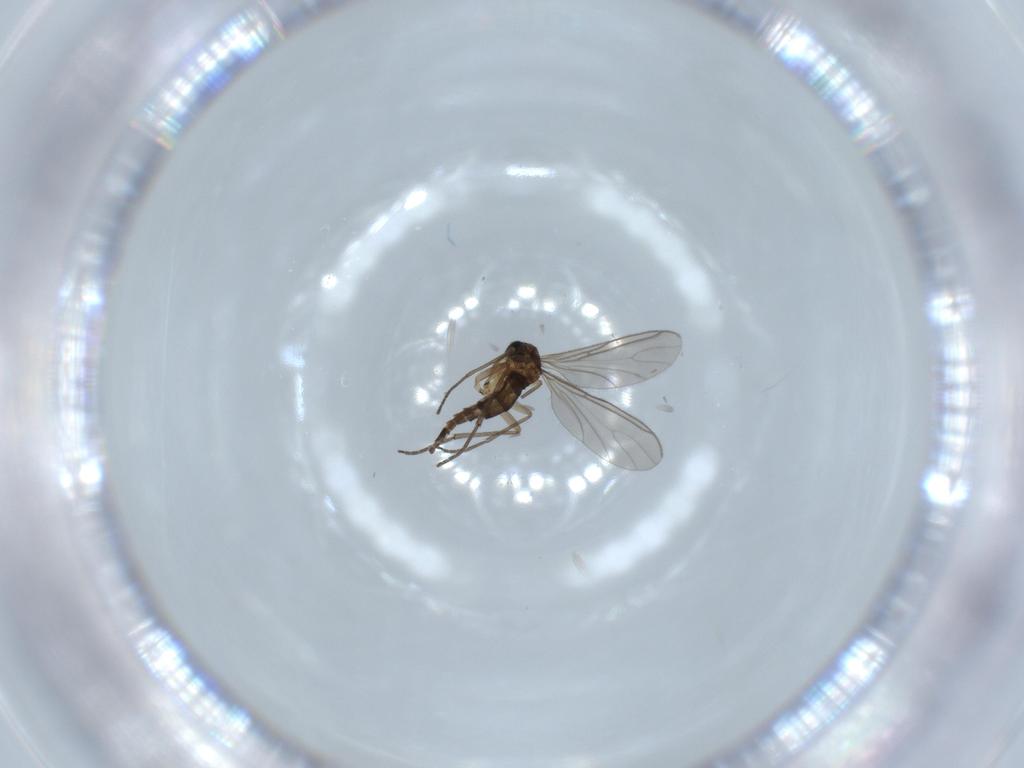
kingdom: Animalia
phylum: Arthropoda
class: Insecta
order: Diptera
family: Sciaridae
